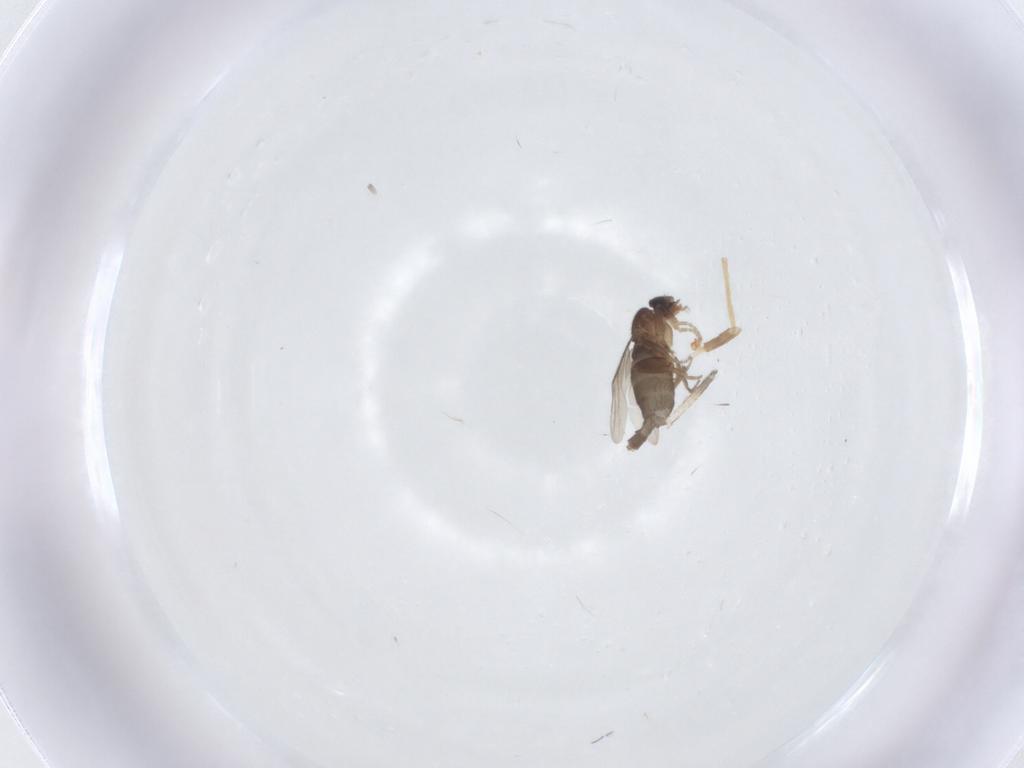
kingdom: Animalia
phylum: Arthropoda
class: Insecta
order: Diptera
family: Phoridae
